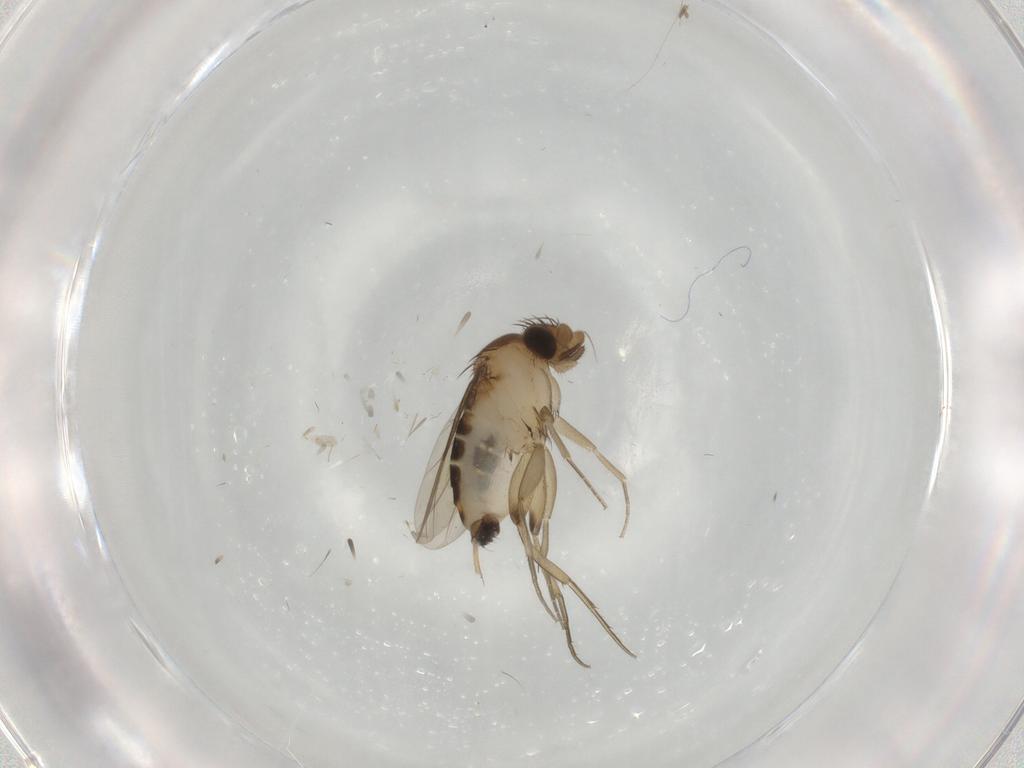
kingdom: Animalia
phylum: Arthropoda
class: Insecta
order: Diptera
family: Phoridae
